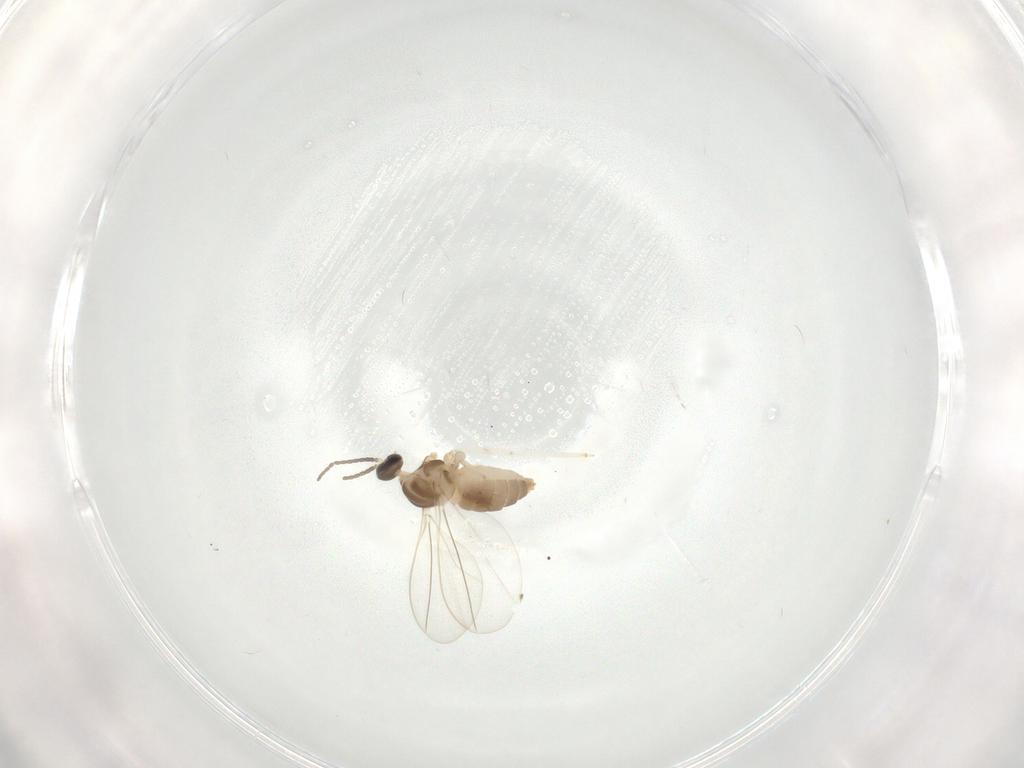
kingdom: Animalia
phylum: Arthropoda
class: Insecta
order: Diptera
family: Cecidomyiidae
